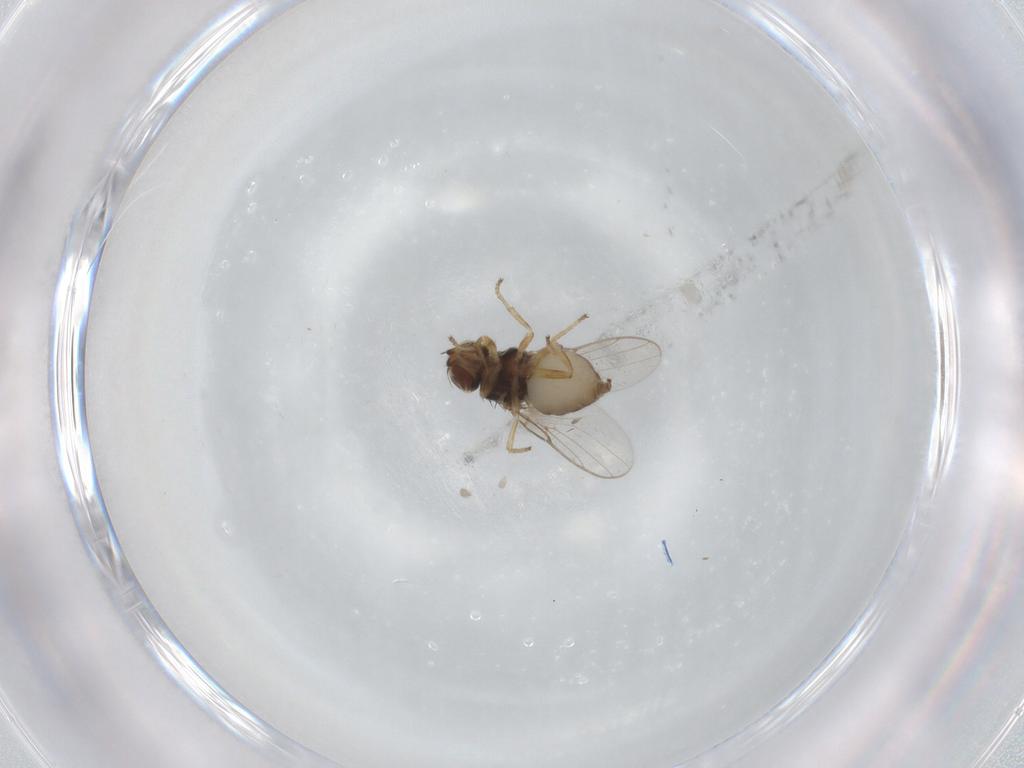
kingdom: Animalia
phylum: Arthropoda
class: Insecta
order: Diptera
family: Chloropidae
